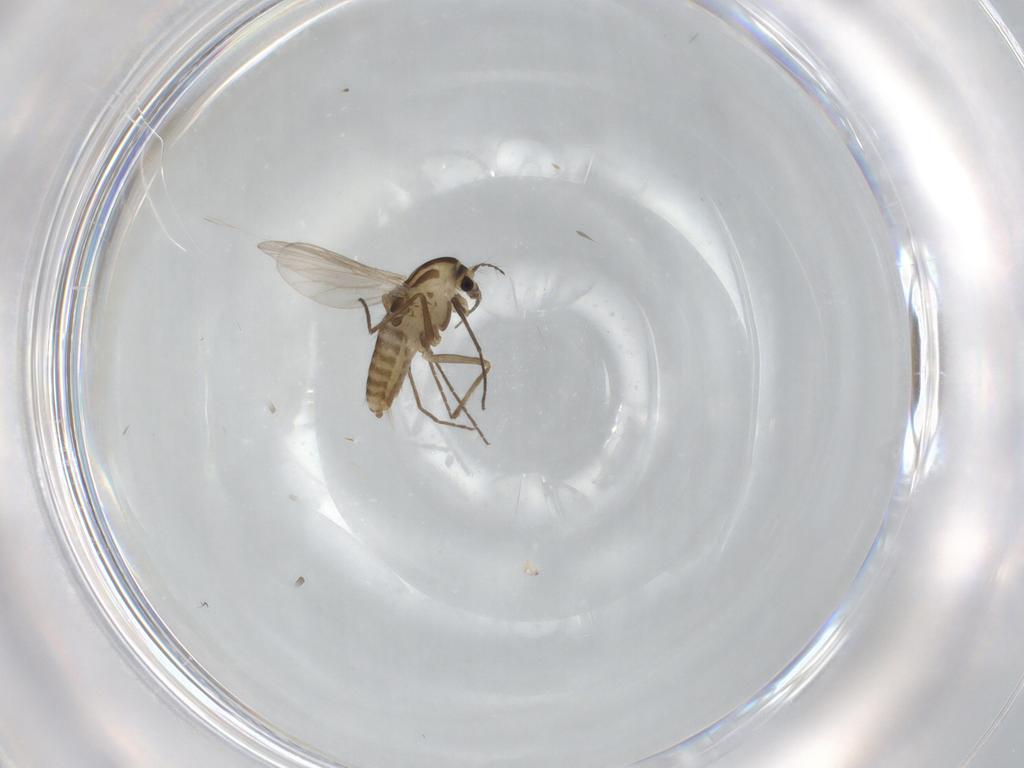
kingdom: Animalia
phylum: Arthropoda
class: Insecta
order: Diptera
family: Chironomidae
